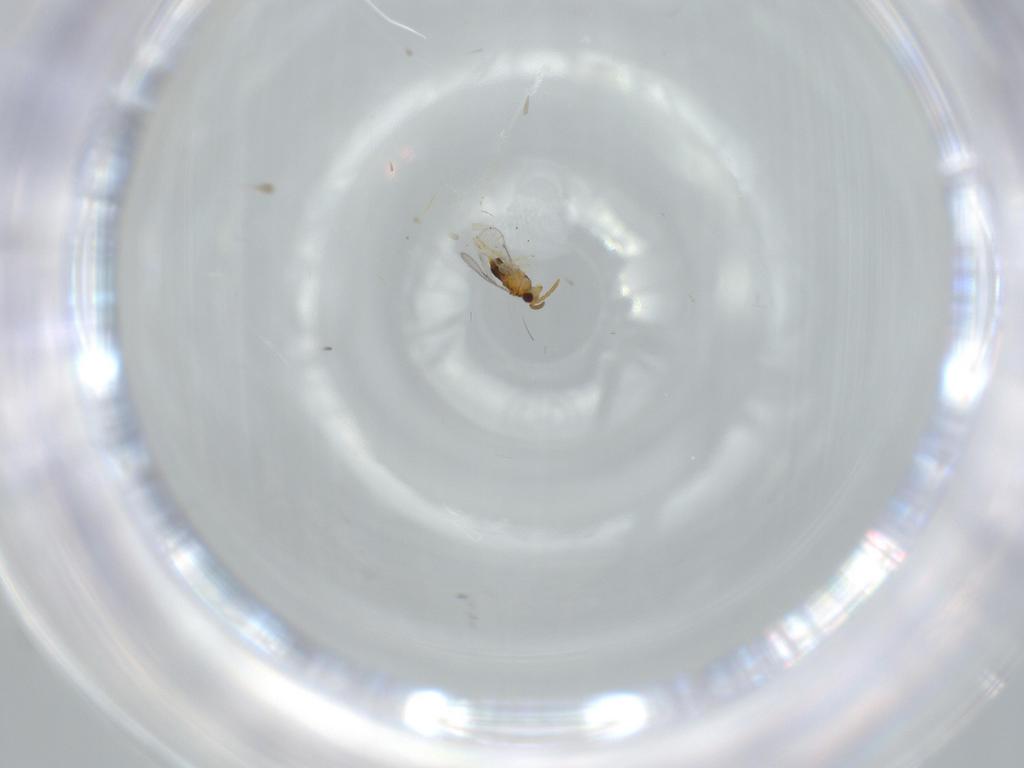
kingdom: Animalia
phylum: Arthropoda
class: Insecta
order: Hymenoptera
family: Aphelinidae
